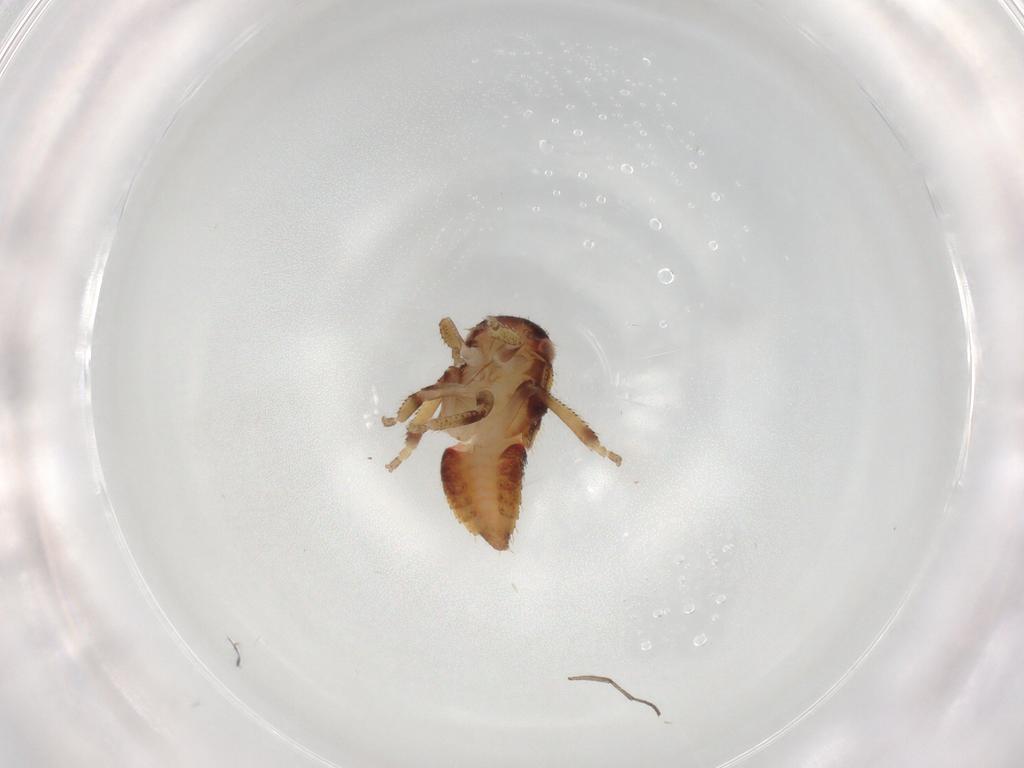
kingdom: Animalia
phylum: Arthropoda
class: Insecta
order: Hemiptera
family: Cicadellidae
